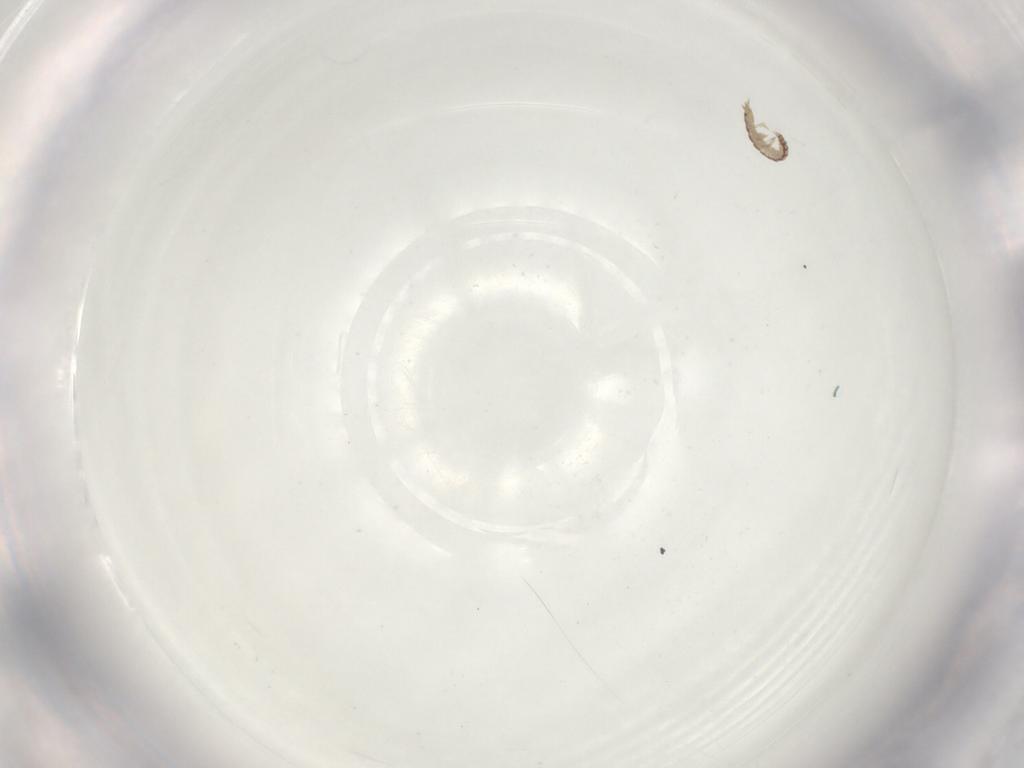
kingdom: Animalia
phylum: Arthropoda
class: Insecta
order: Neuroptera
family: Mantispidae
